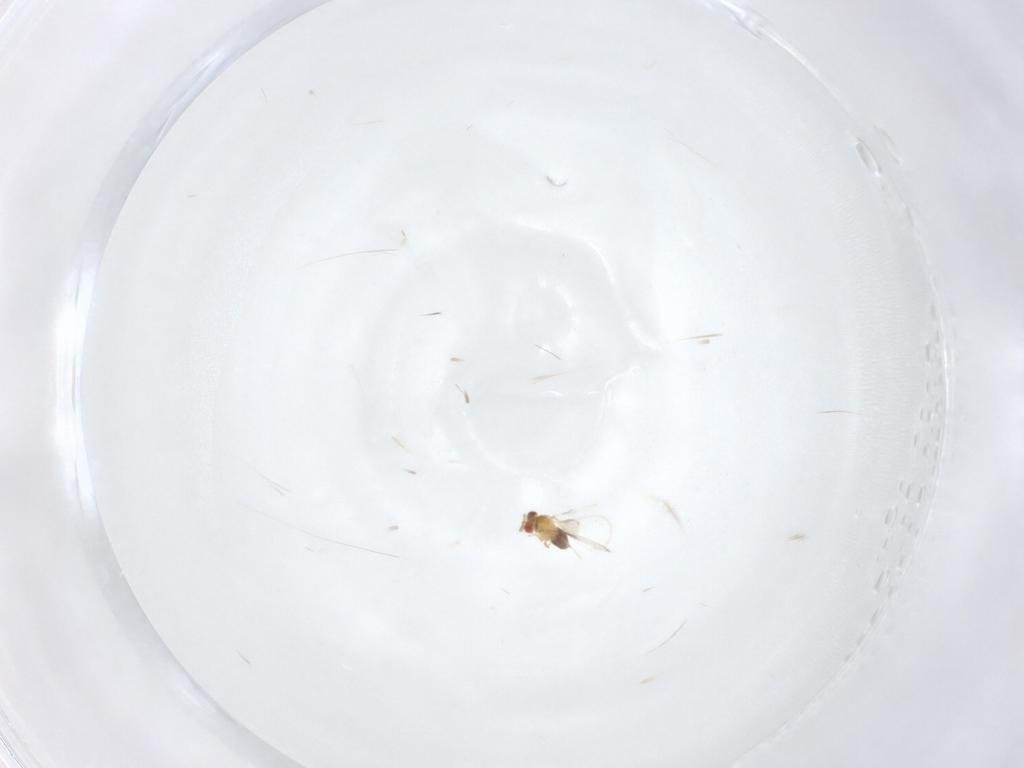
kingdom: Animalia
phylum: Arthropoda
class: Insecta
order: Hymenoptera
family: Trichogrammatidae
